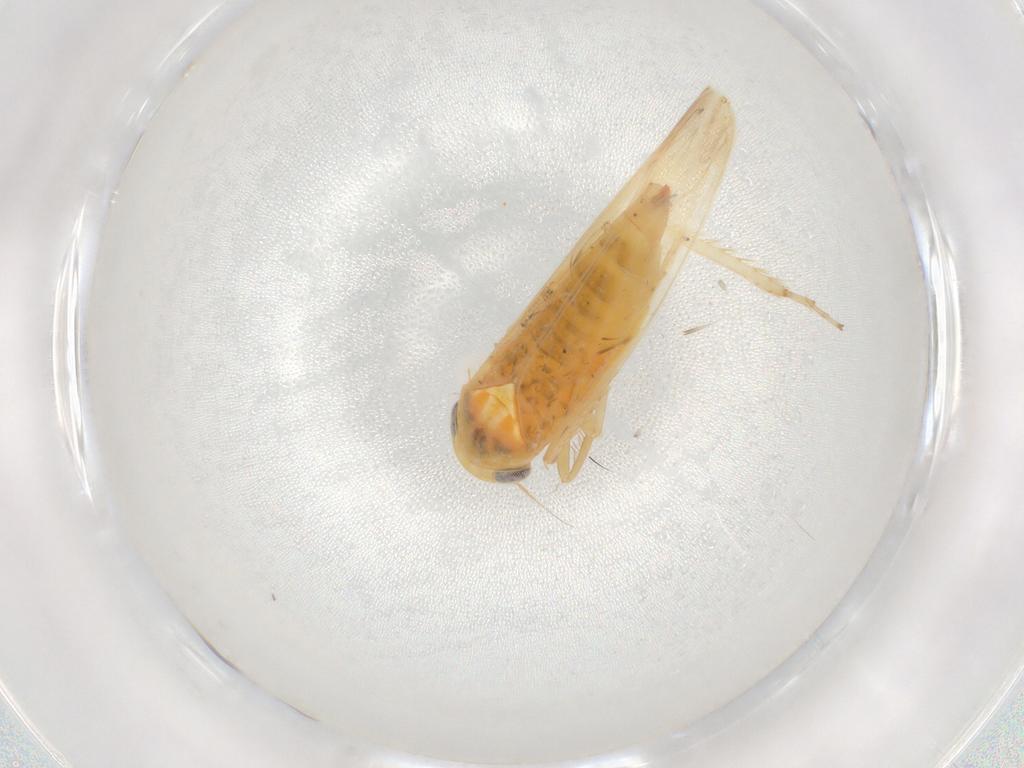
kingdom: Animalia
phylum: Arthropoda
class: Insecta
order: Hemiptera
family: Cicadellidae
